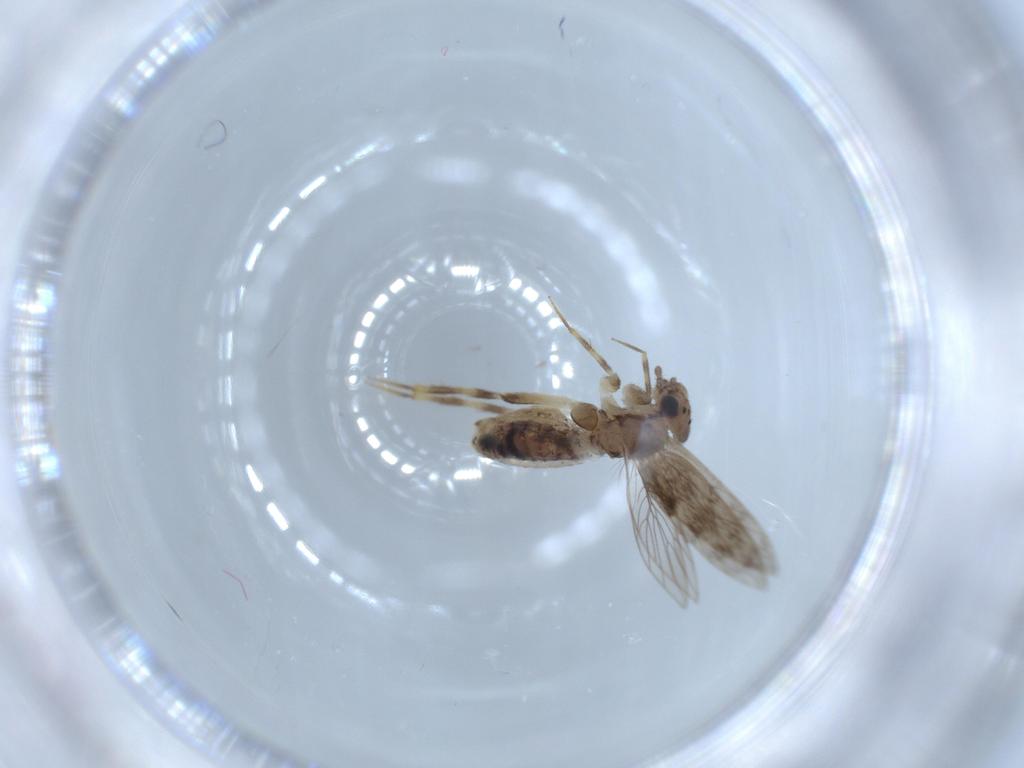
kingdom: Animalia
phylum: Arthropoda
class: Insecta
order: Psocodea
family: Lepidopsocidae
